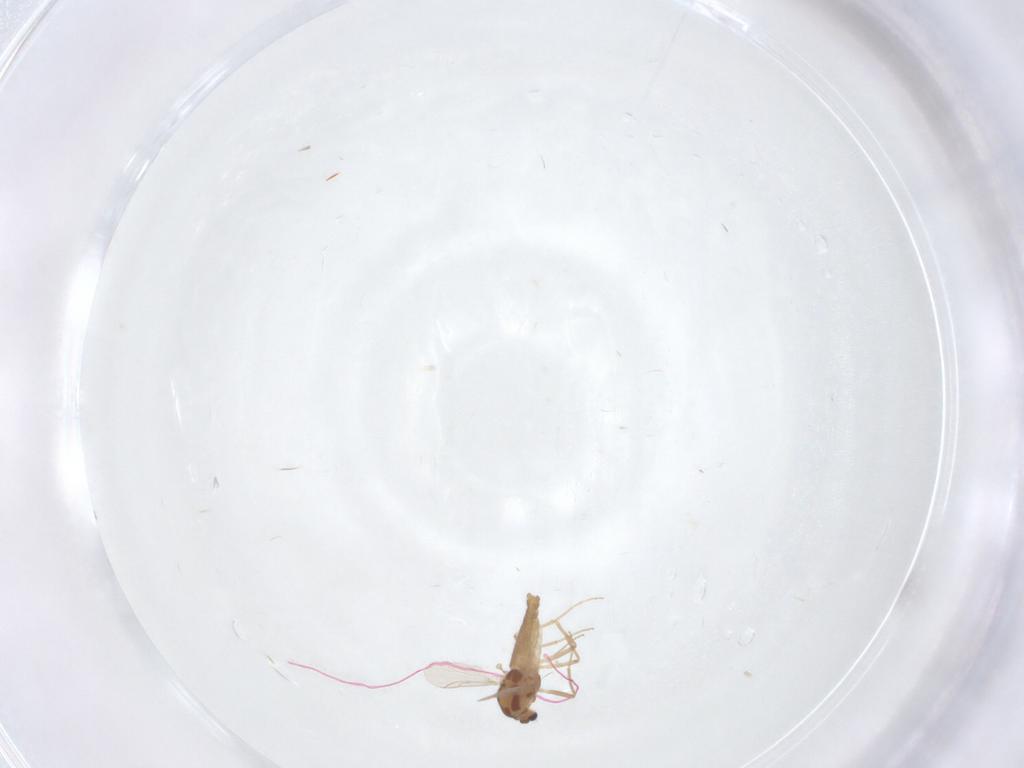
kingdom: Animalia
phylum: Arthropoda
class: Insecta
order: Diptera
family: Chironomidae
